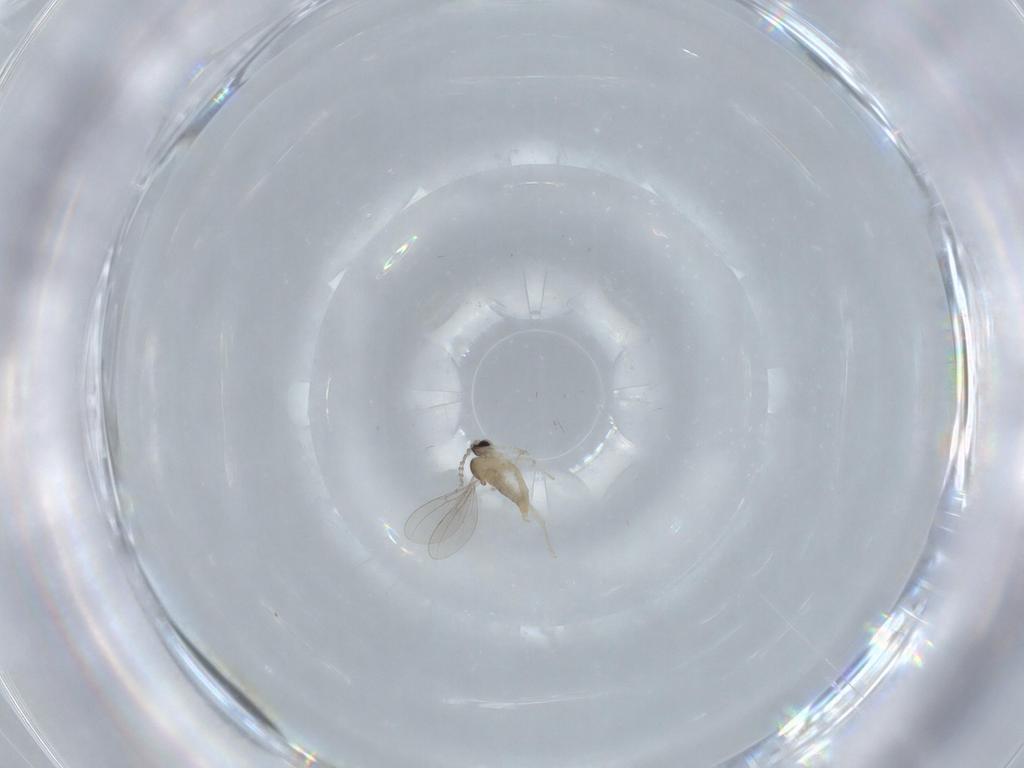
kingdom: Animalia
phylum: Arthropoda
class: Insecta
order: Diptera
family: Cecidomyiidae
